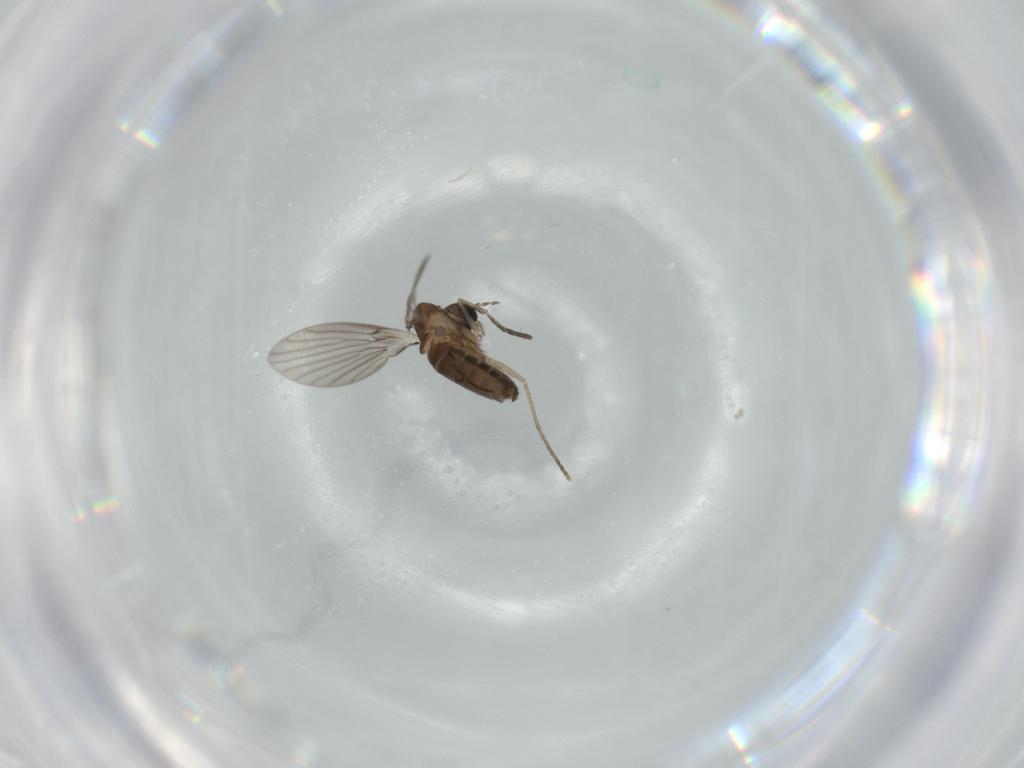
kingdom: Animalia
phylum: Arthropoda
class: Insecta
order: Diptera
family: Psychodidae
